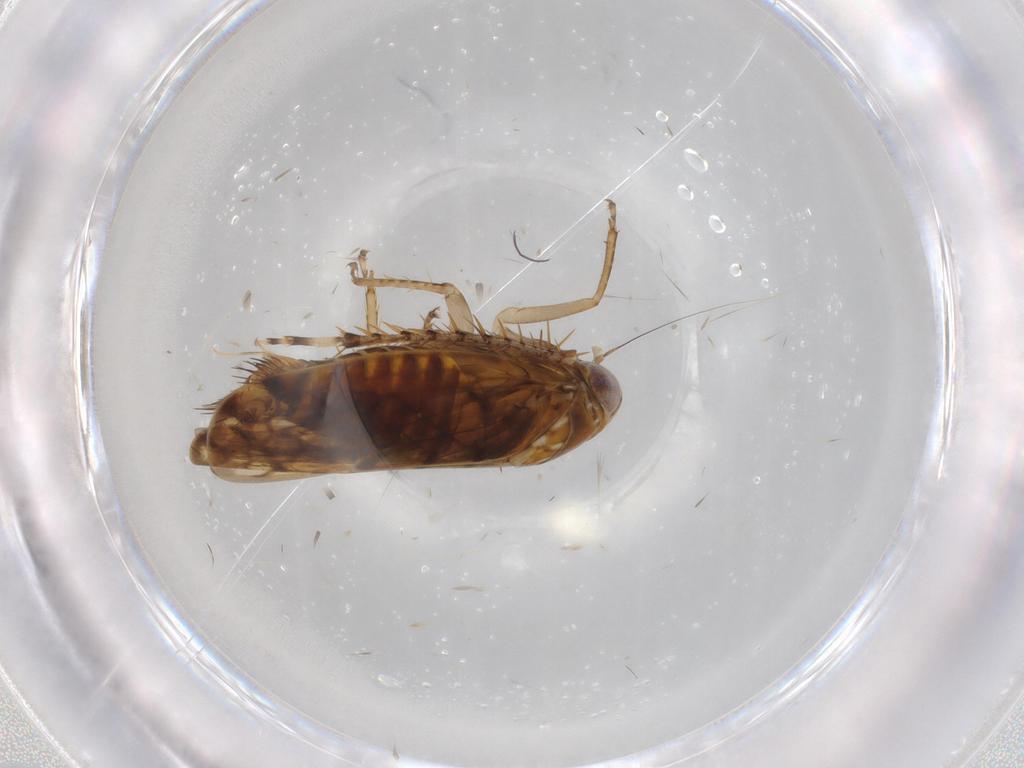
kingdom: Animalia
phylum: Arthropoda
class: Insecta
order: Hemiptera
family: Cicadellidae
